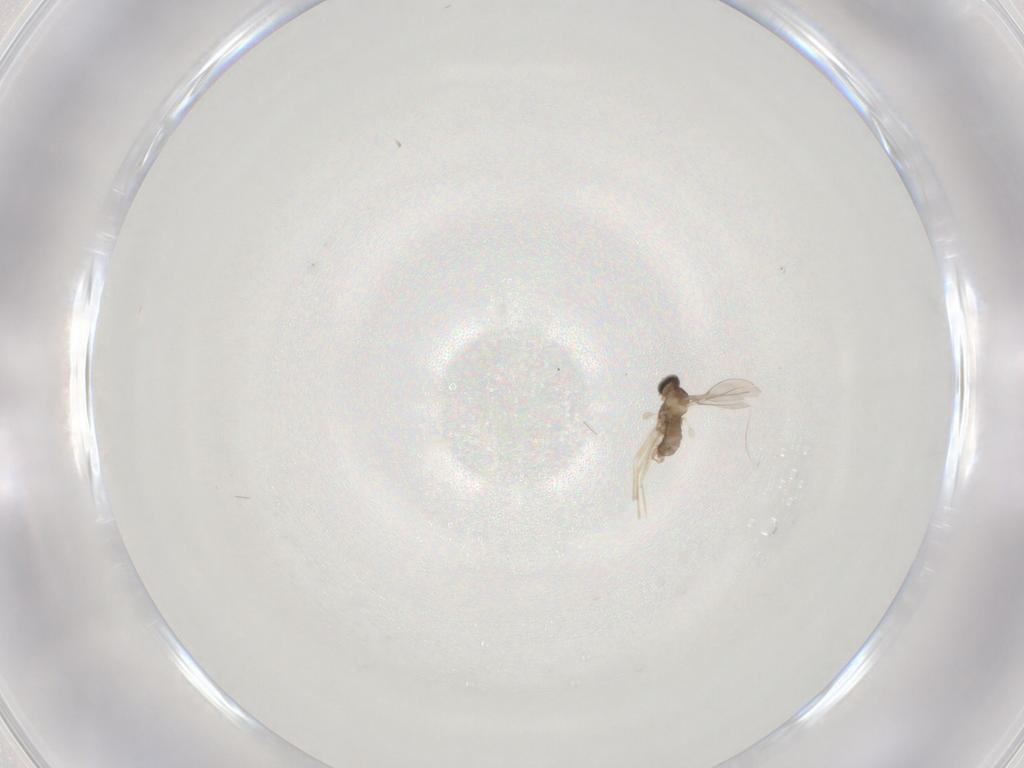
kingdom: Animalia
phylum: Arthropoda
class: Insecta
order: Diptera
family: Cecidomyiidae
